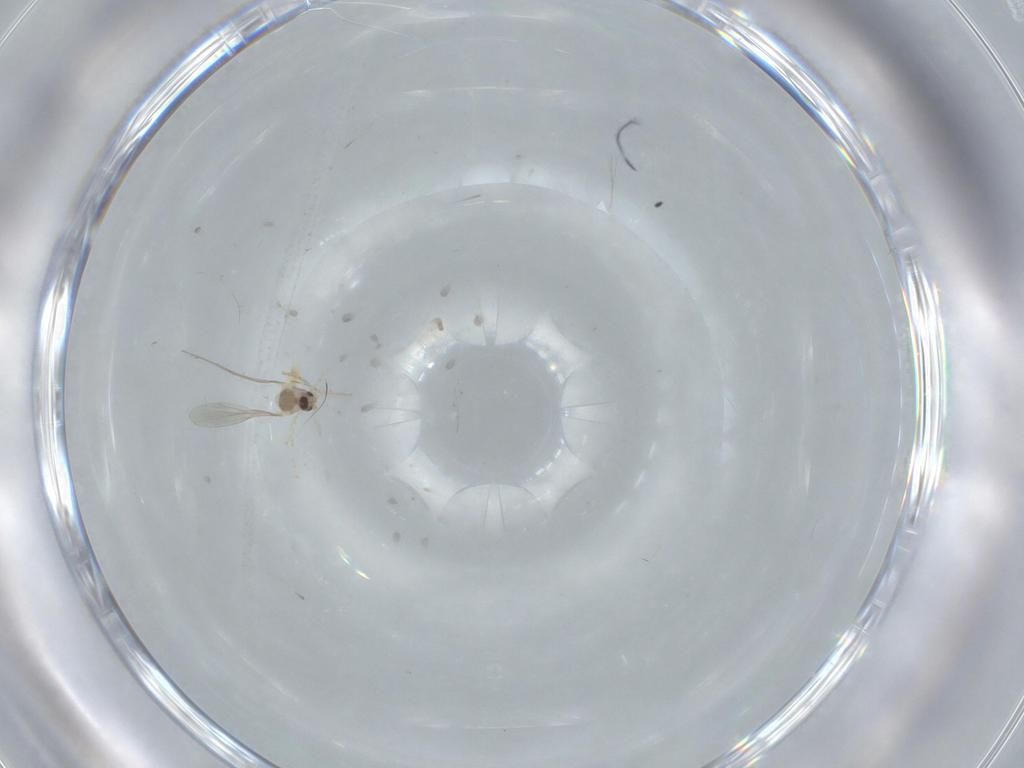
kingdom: Animalia
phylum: Arthropoda
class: Insecta
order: Diptera
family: Cecidomyiidae
